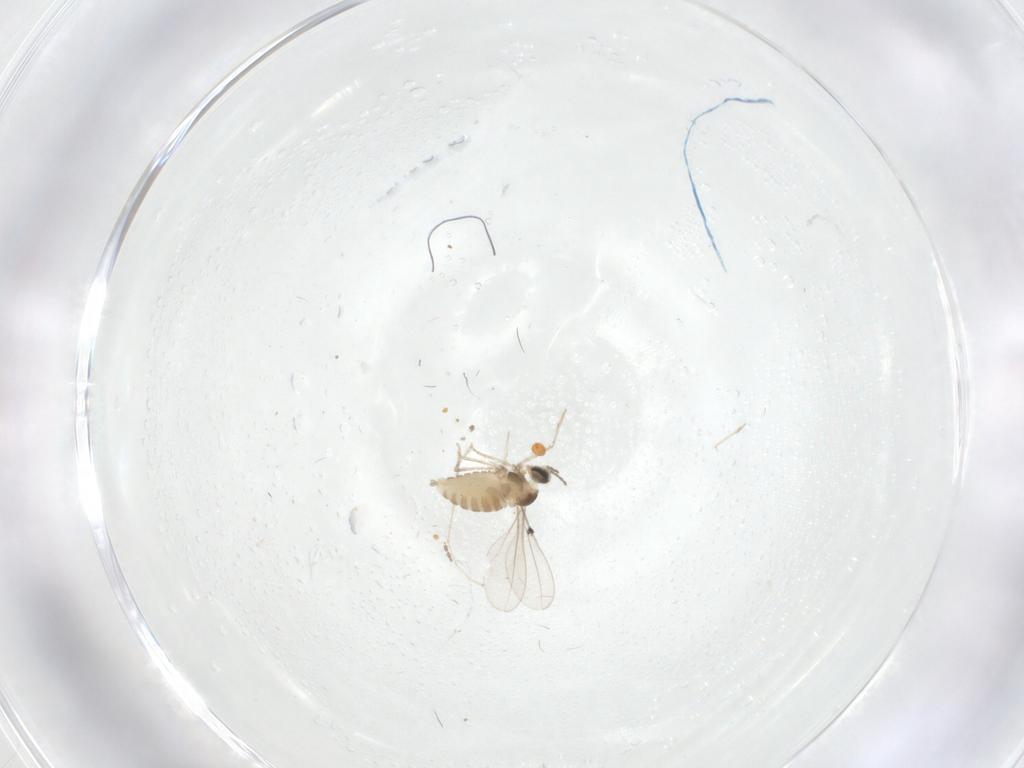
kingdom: Animalia
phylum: Arthropoda
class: Insecta
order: Diptera
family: Cecidomyiidae
